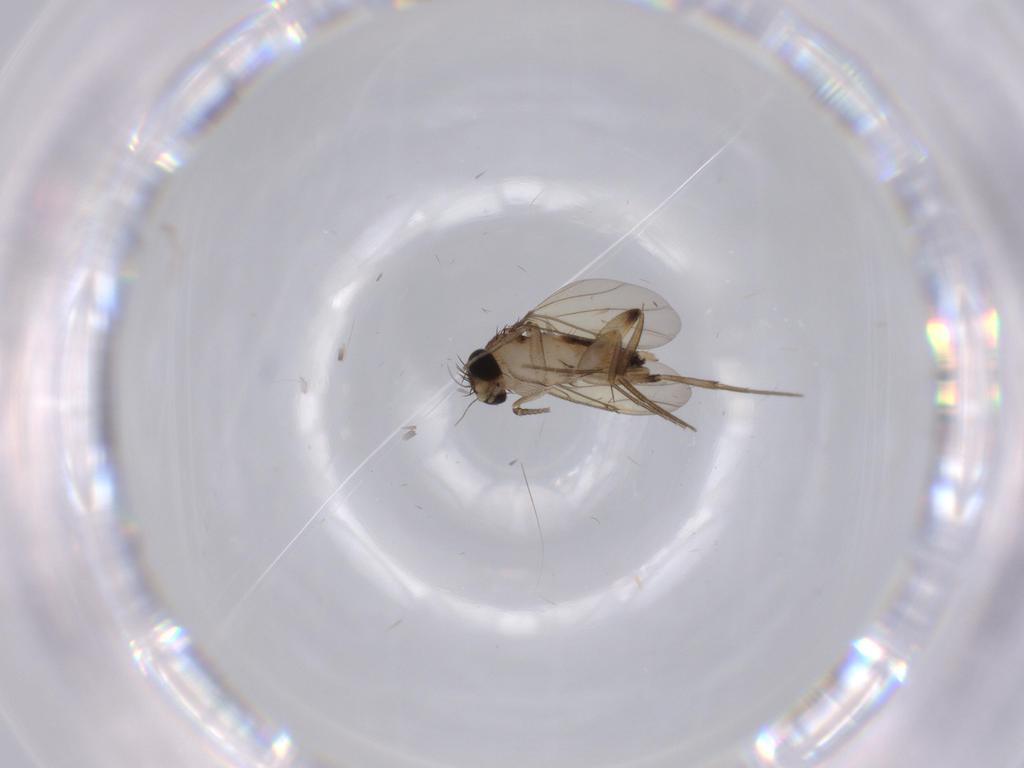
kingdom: Animalia
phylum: Arthropoda
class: Insecta
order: Diptera
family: Phoridae
